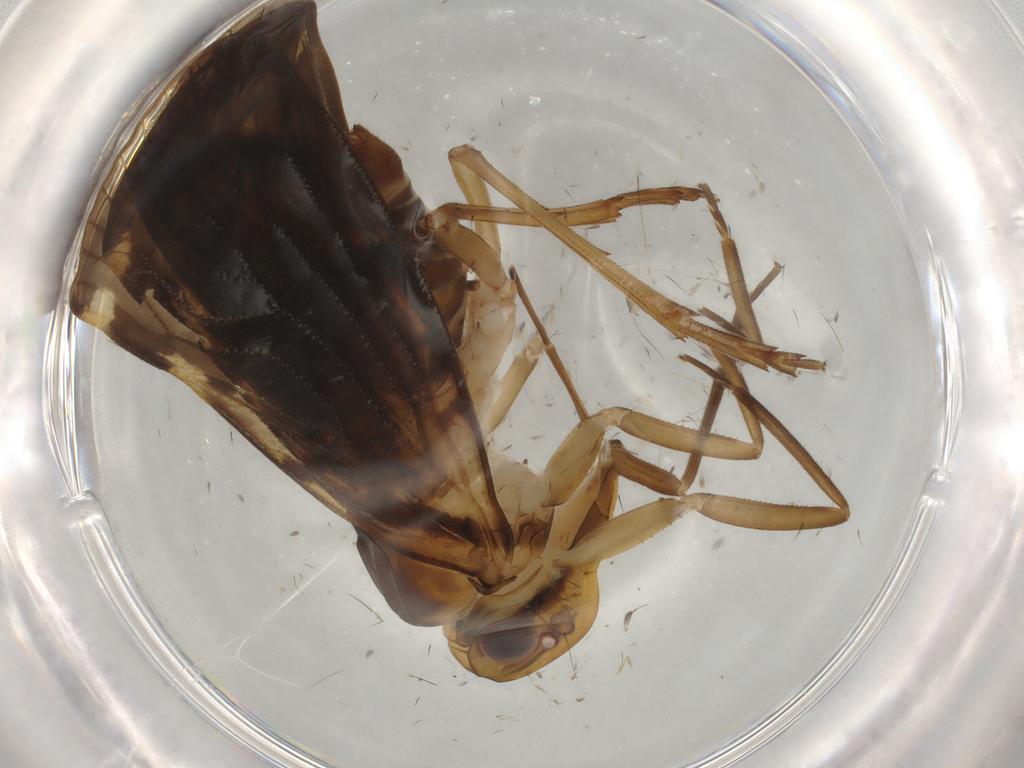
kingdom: Animalia
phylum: Arthropoda
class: Insecta
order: Hemiptera
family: Cixiidae
